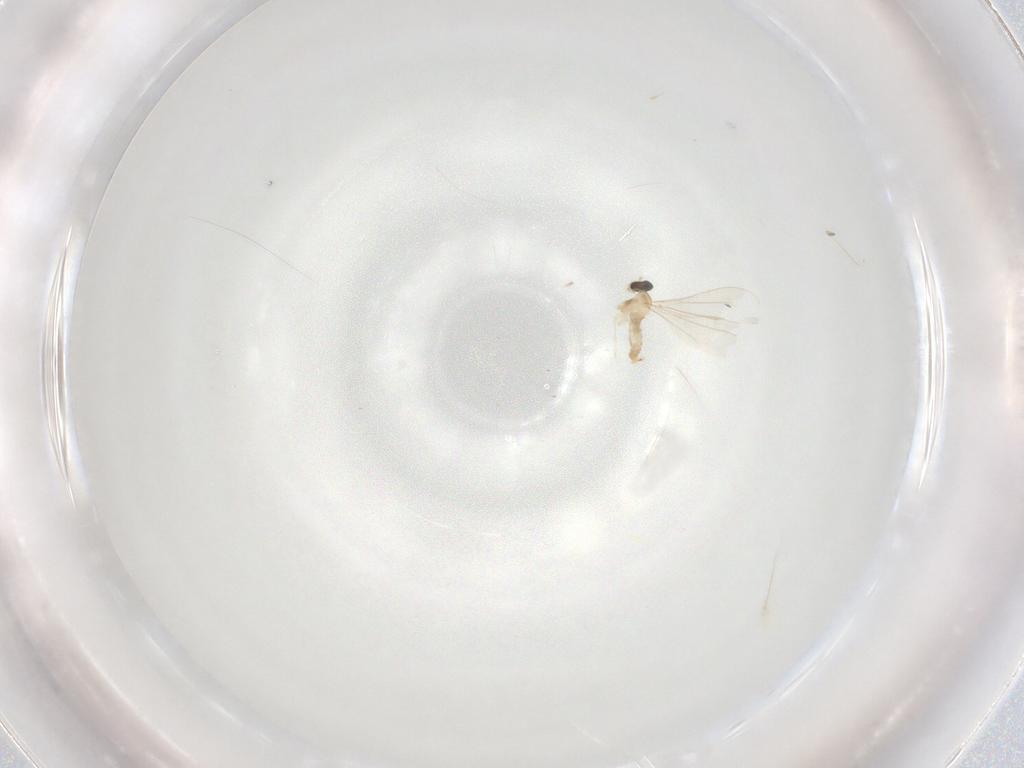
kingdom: Animalia
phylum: Arthropoda
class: Insecta
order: Diptera
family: Cecidomyiidae
